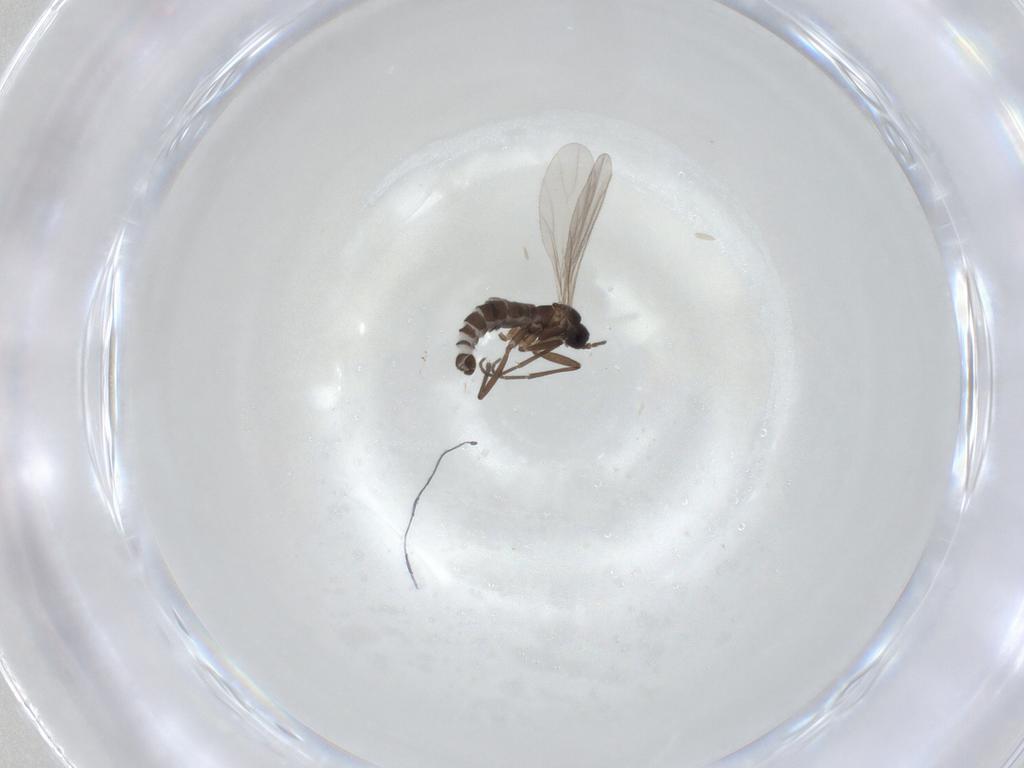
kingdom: Animalia
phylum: Arthropoda
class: Insecta
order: Diptera
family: Sciaridae
